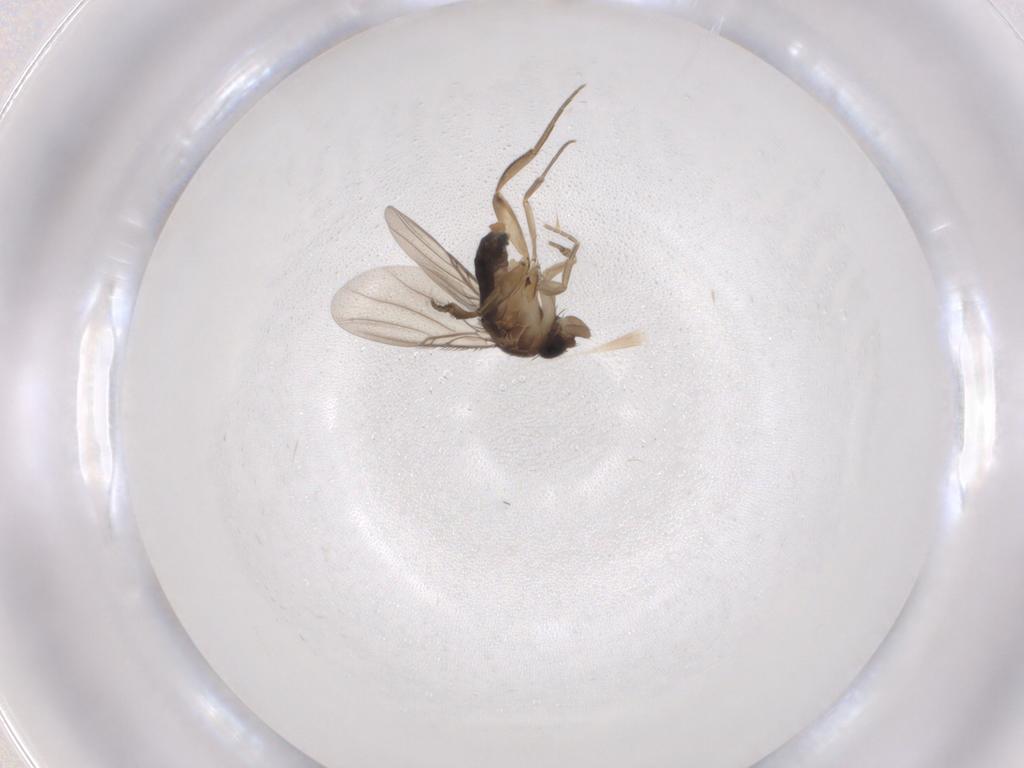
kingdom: Animalia
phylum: Arthropoda
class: Insecta
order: Diptera
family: Phoridae
